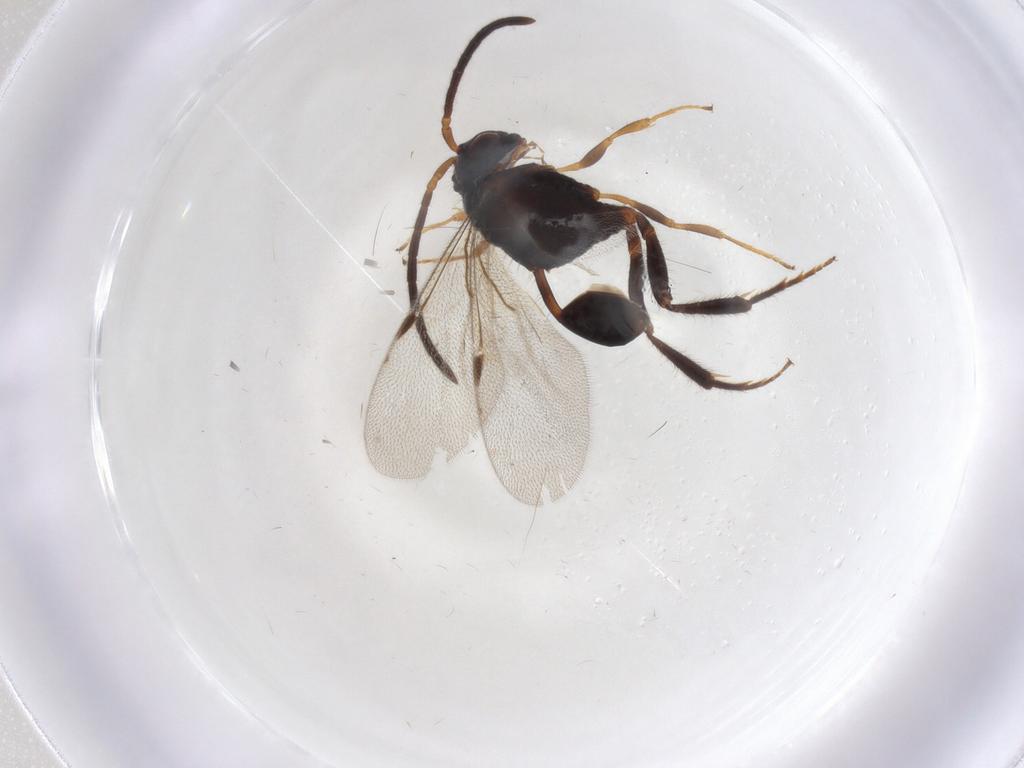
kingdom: Animalia
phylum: Arthropoda
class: Insecta
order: Hymenoptera
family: Evaniidae
